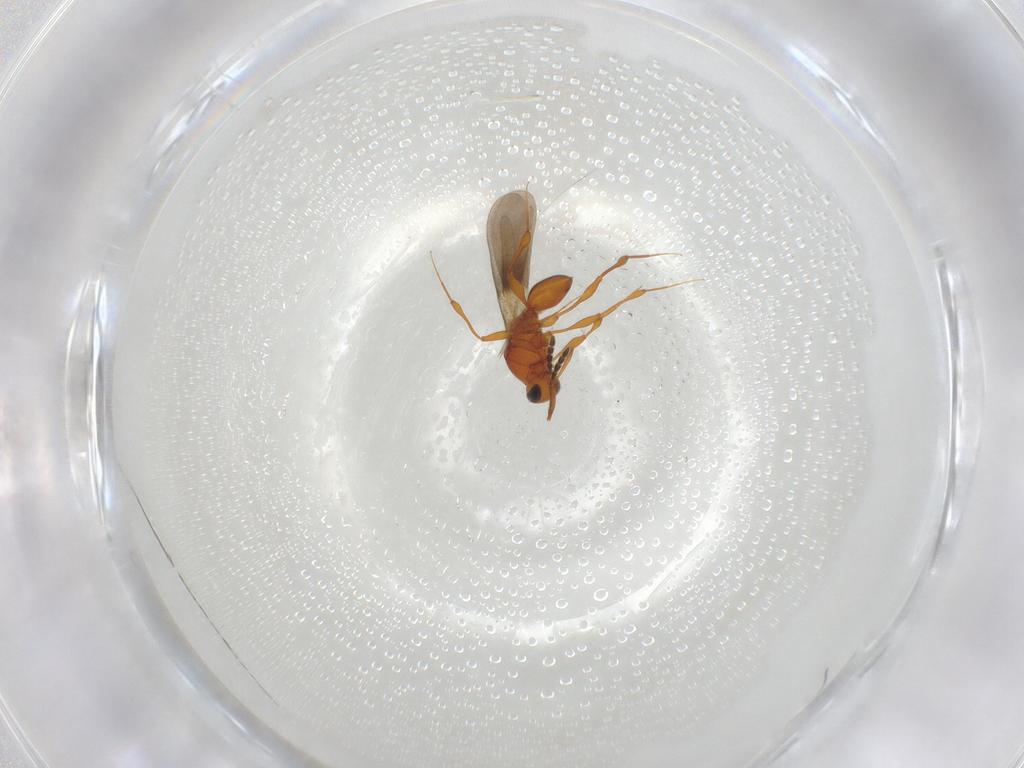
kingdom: Animalia
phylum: Arthropoda
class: Insecta
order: Hymenoptera
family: Platygastridae
